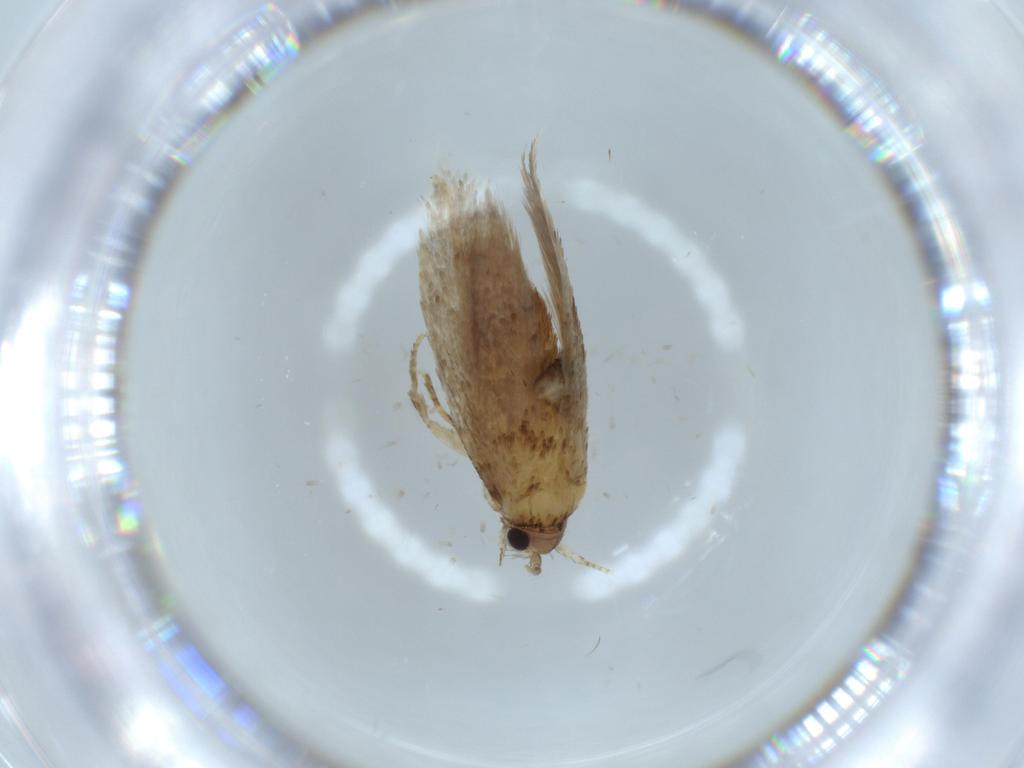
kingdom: Animalia
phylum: Arthropoda
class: Insecta
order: Lepidoptera
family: Tineidae
